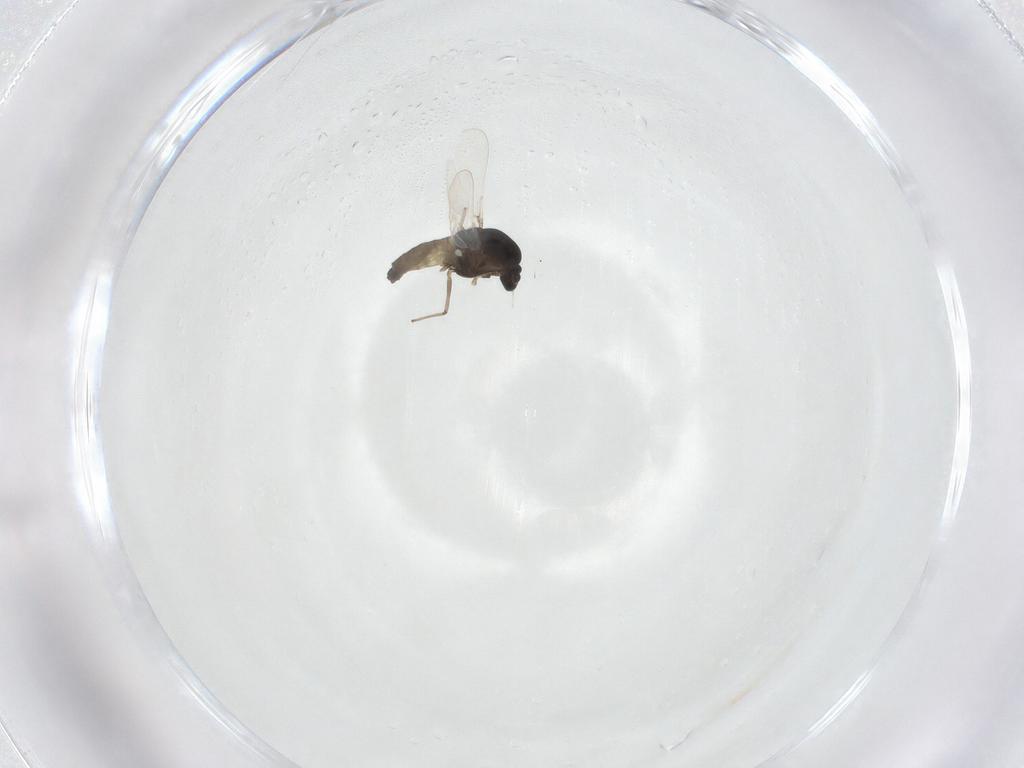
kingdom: Animalia
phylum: Arthropoda
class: Insecta
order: Diptera
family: Chironomidae
